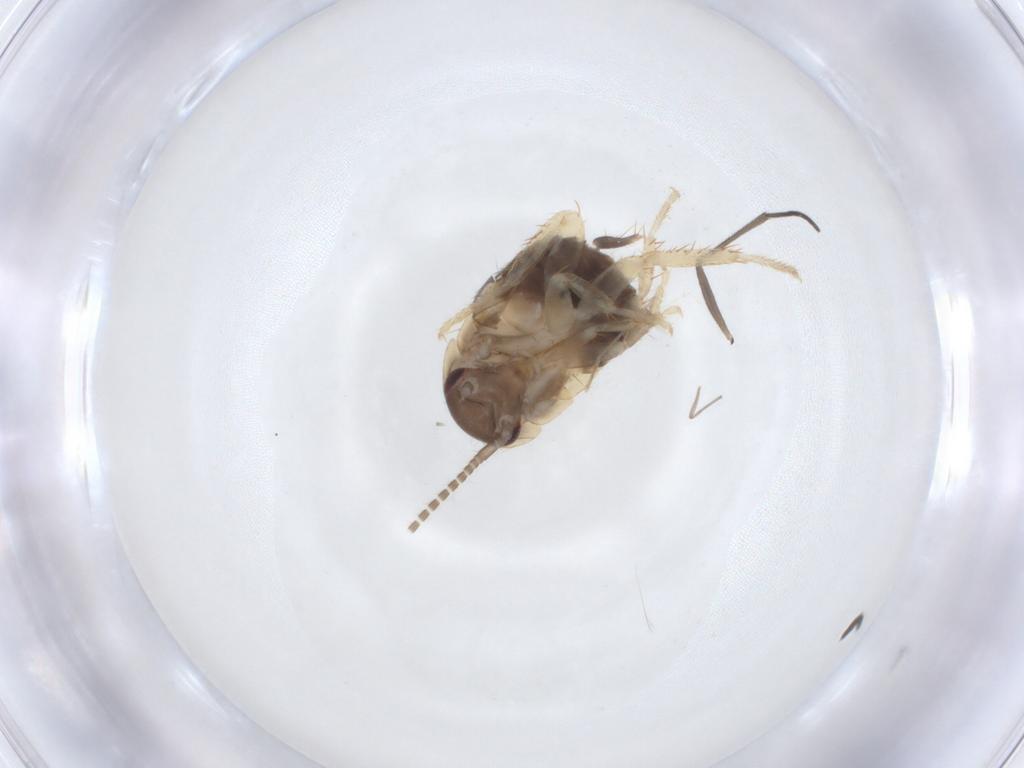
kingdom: Animalia
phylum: Arthropoda
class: Insecta
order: Blattodea
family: Ectobiidae
